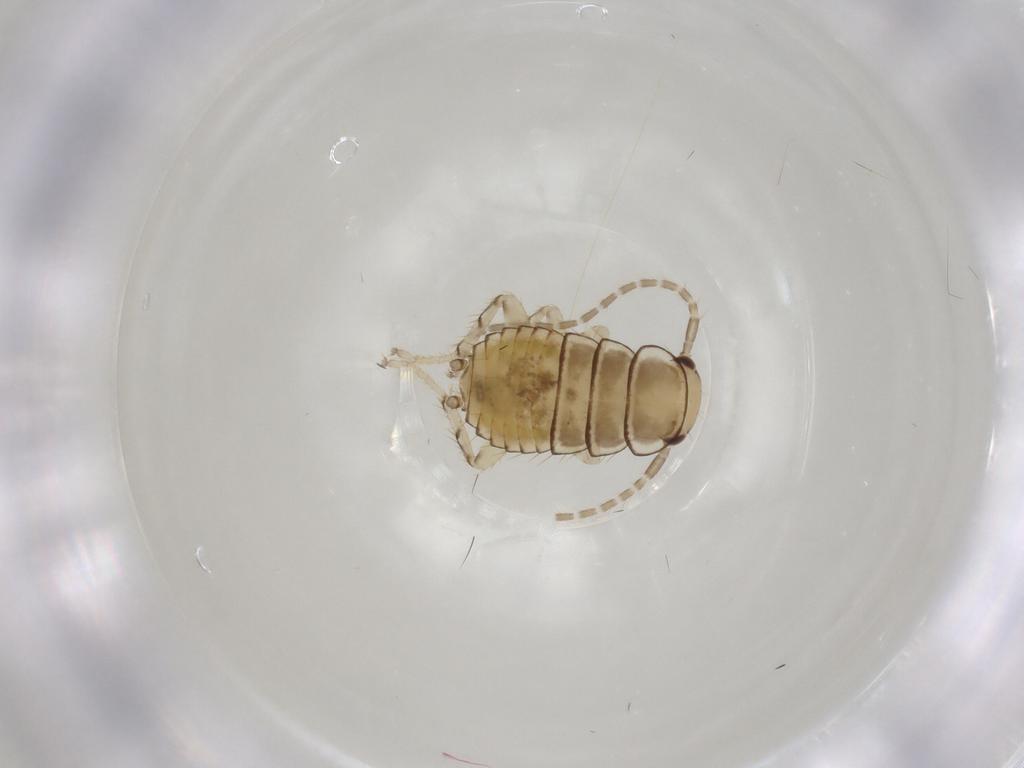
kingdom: Animalia
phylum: Arthropoda
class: Insecta
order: Blattodea
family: Ectobiidae
